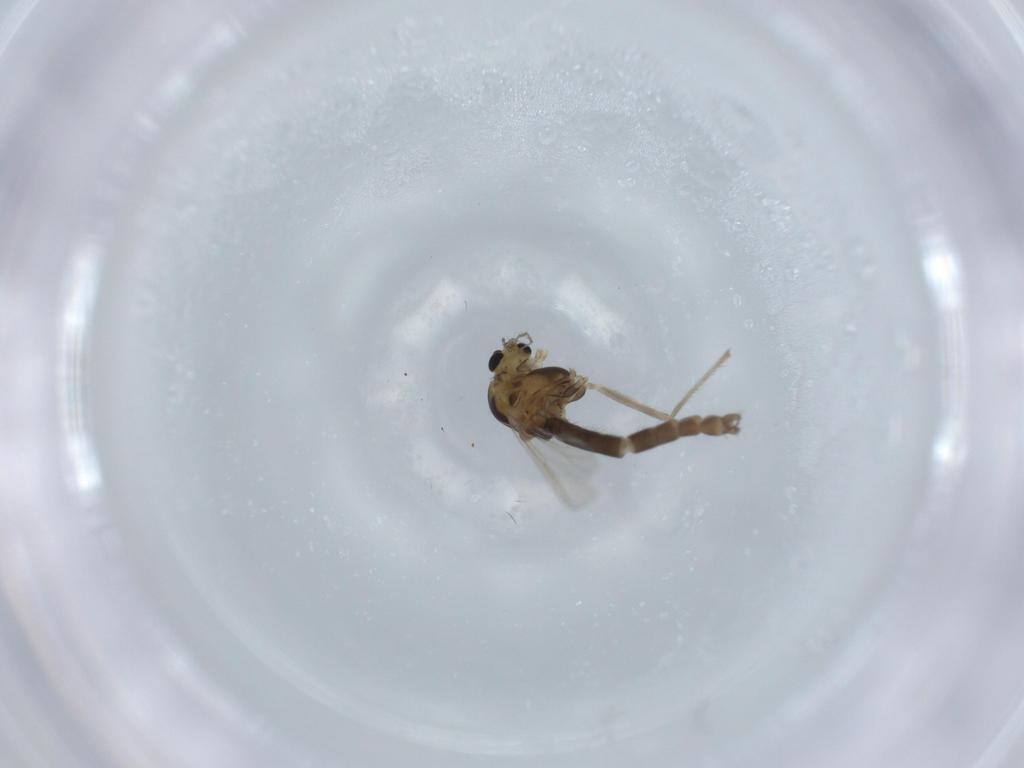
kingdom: Animalia
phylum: Arthropoda
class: Insecta
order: Diptera
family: Chironomidae
